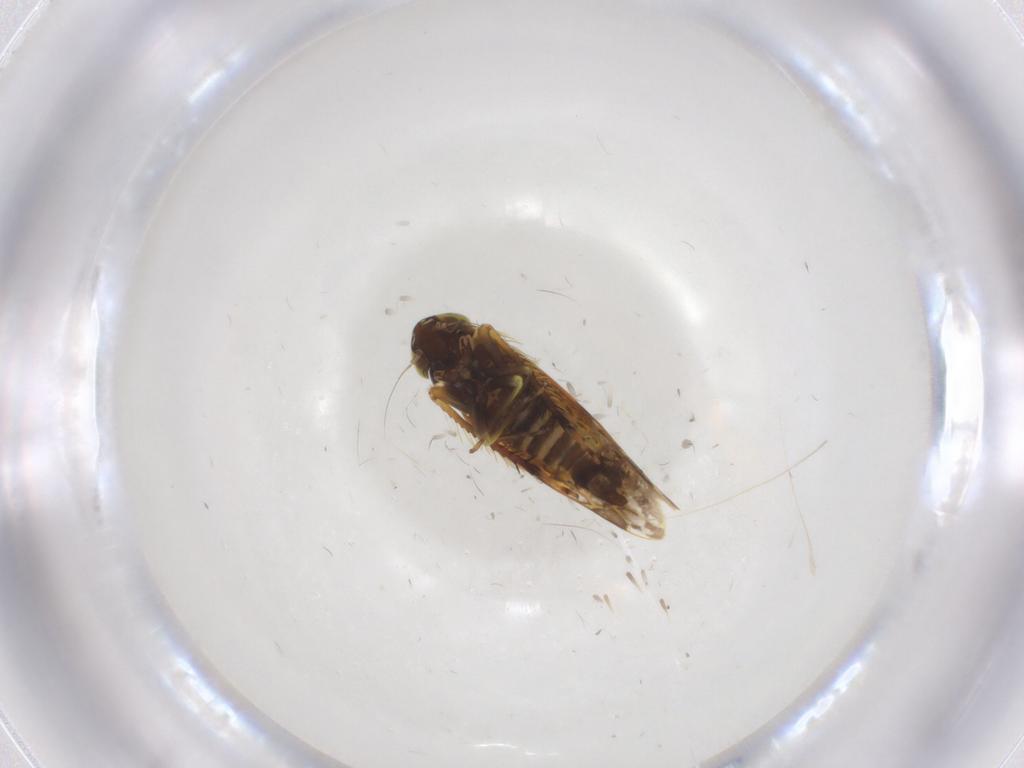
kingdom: Animalia
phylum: Arthropoda
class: Insecta
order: Hemiptera
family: Cicadellidae
